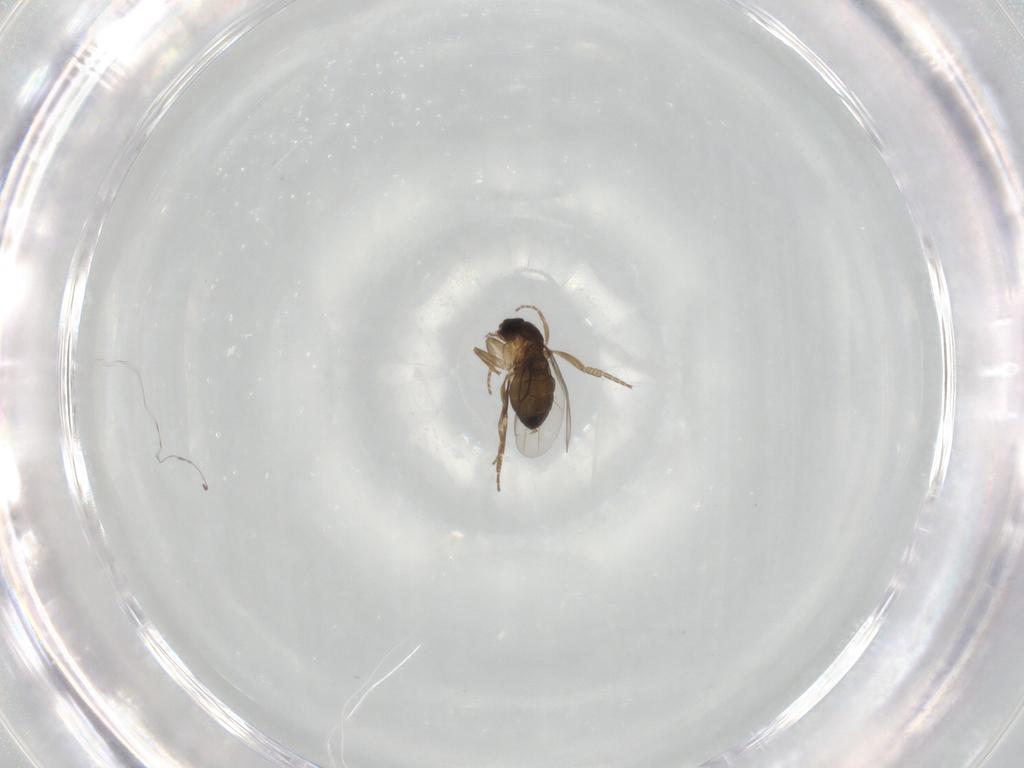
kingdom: Animalia
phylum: Arthropoda
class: Insecta
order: Diptera
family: Phoridae
